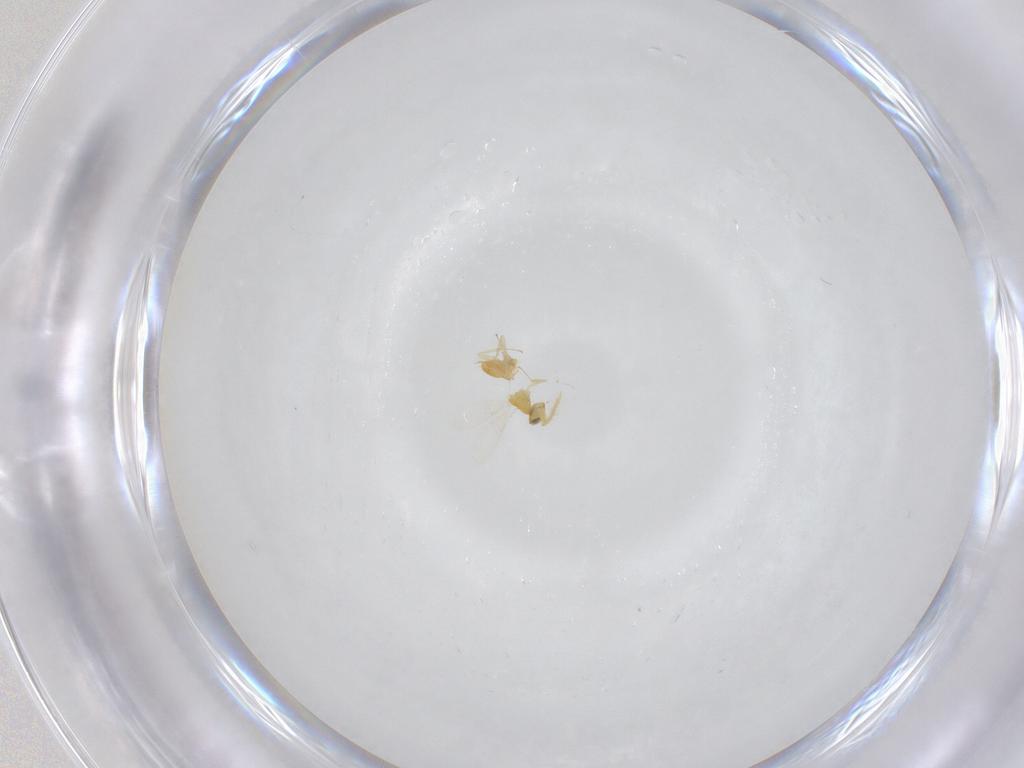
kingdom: Animalia
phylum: Arthropoda
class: Insecta
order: Hymenoptera
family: Aphelinidae
